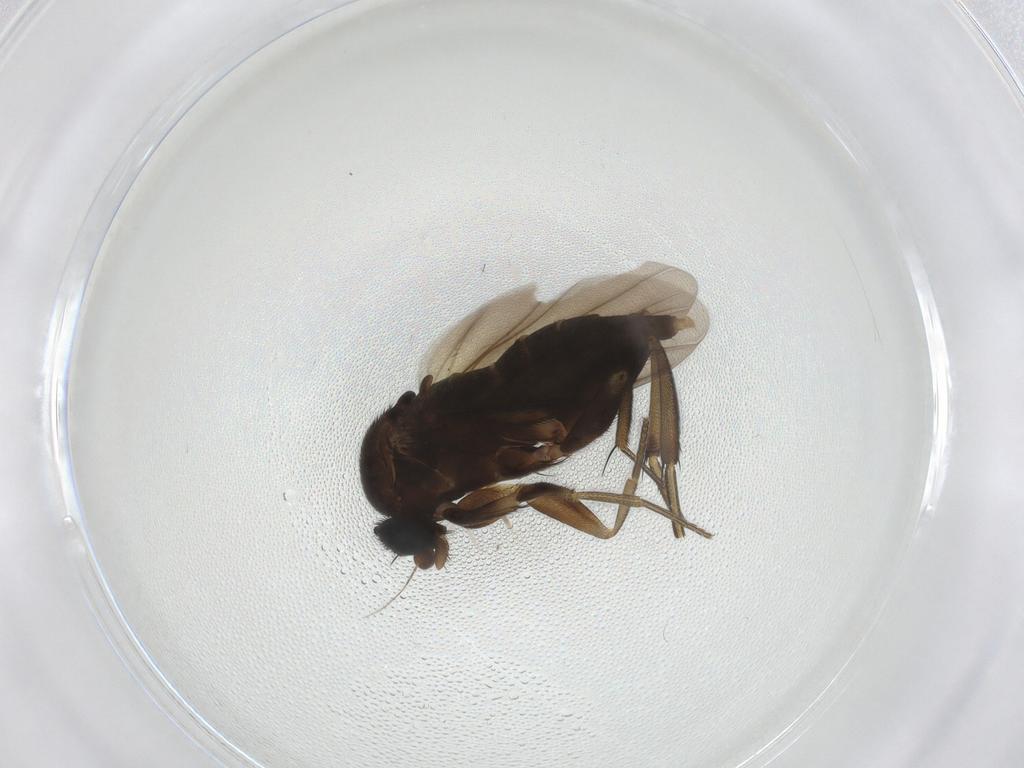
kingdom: Animalia
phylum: Arthropoda
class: Insecta
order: Diptera
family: Phoridae
